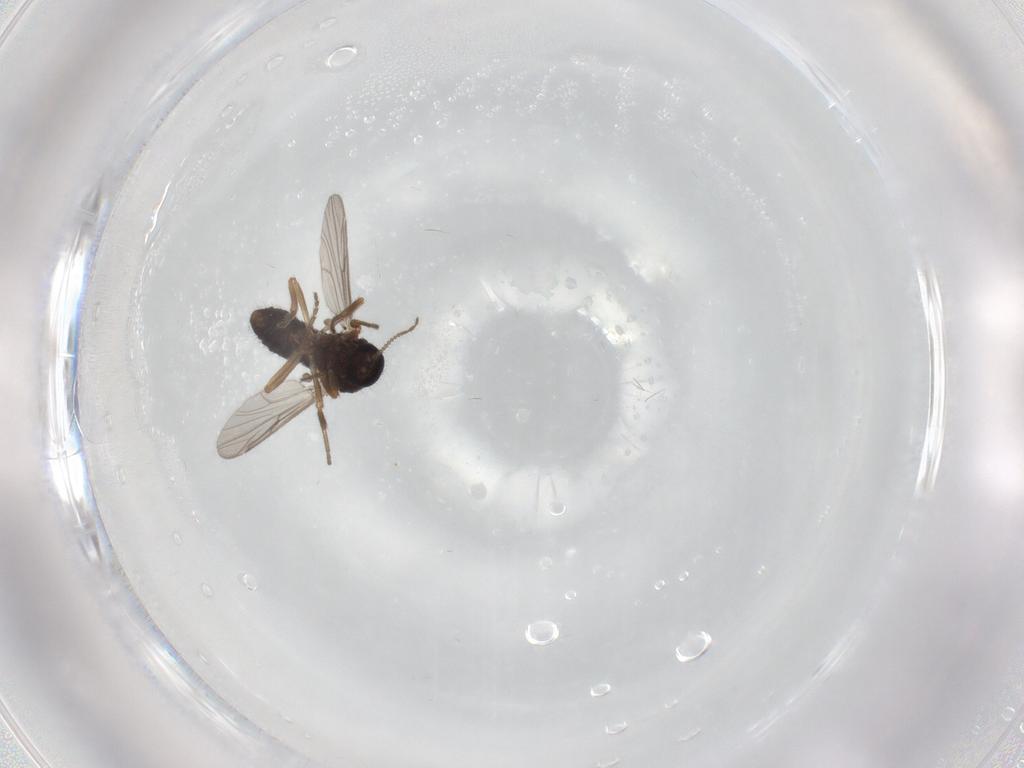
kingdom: Animalia
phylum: Arthropoda
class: Insecta
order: Diptera
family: Ceratopogonidae
